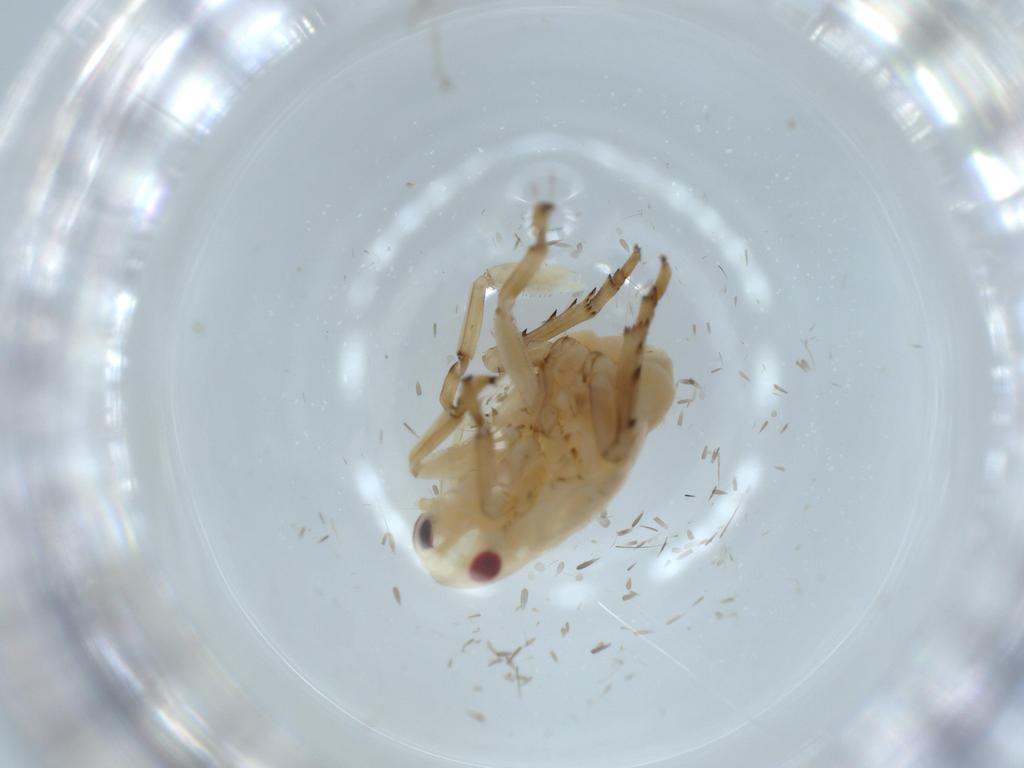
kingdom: Animalia
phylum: Arthropoda
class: Insecta
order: Hemiptera
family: Flatidae
